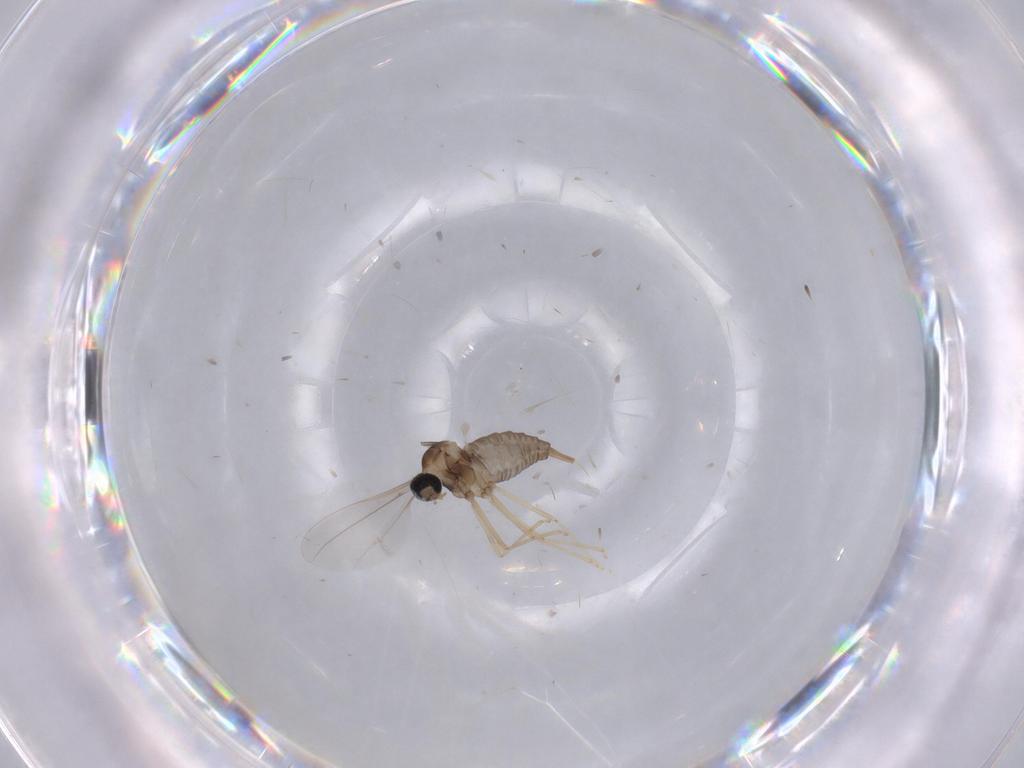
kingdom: Animalia
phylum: Arthropoda
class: Insecta
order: Diptera
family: Cecidomyiidae
